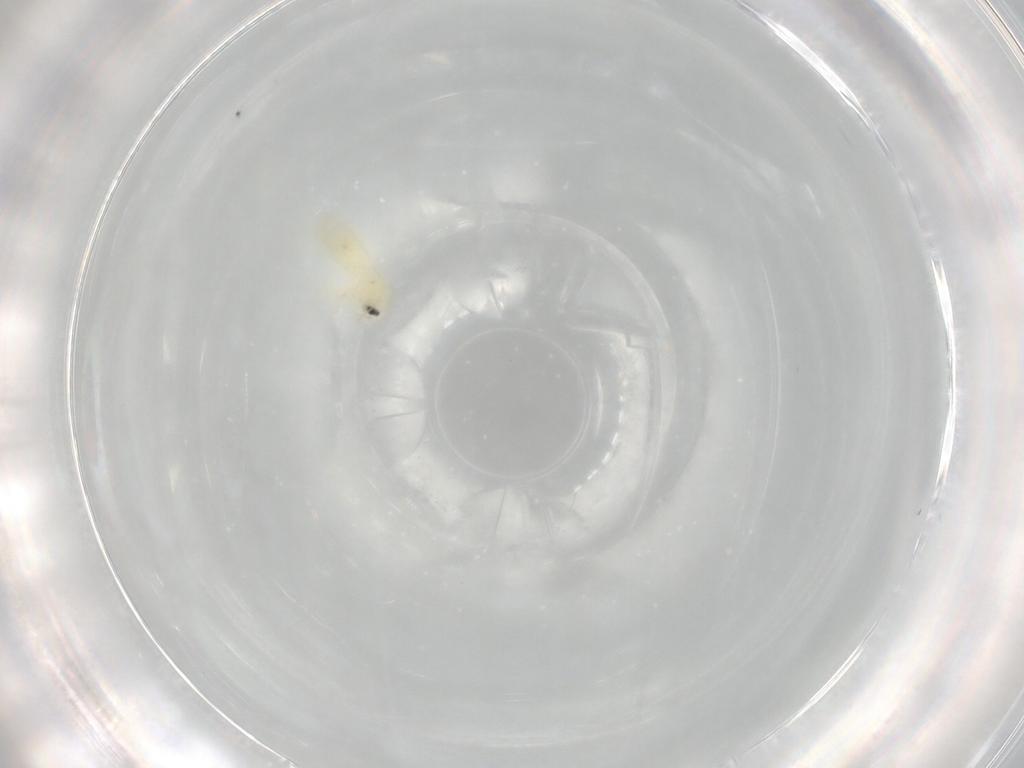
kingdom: Animalia
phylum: Arthropoda
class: Insecta
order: Hemiptera
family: Aleyrodidae
